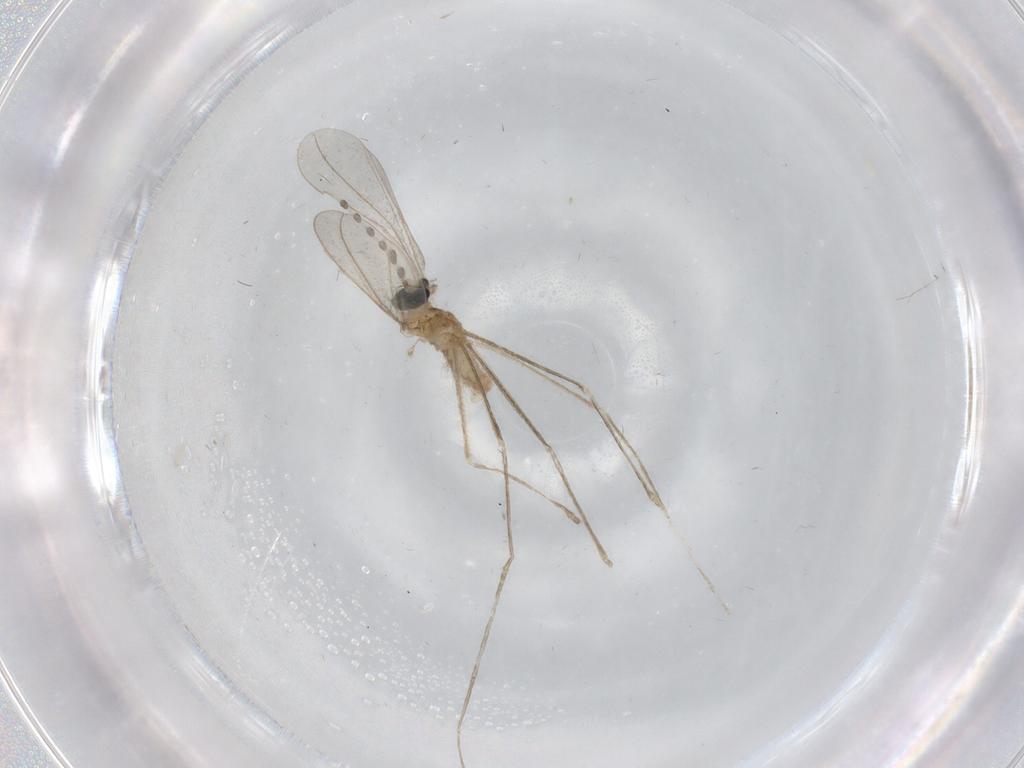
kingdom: Animalia
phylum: Arthropoda
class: Insecta
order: Diptera
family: Cecidomyiidae
